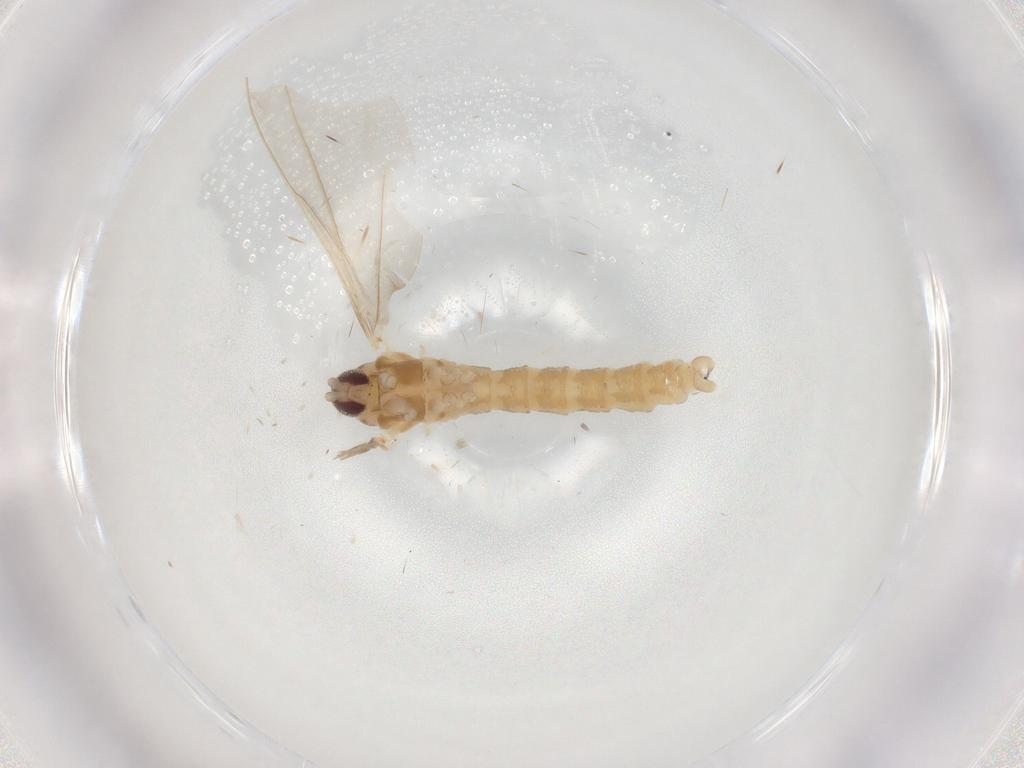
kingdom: Animalia
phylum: Arthropoda
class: Insecta
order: Diptera
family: Cecidomyiidae
